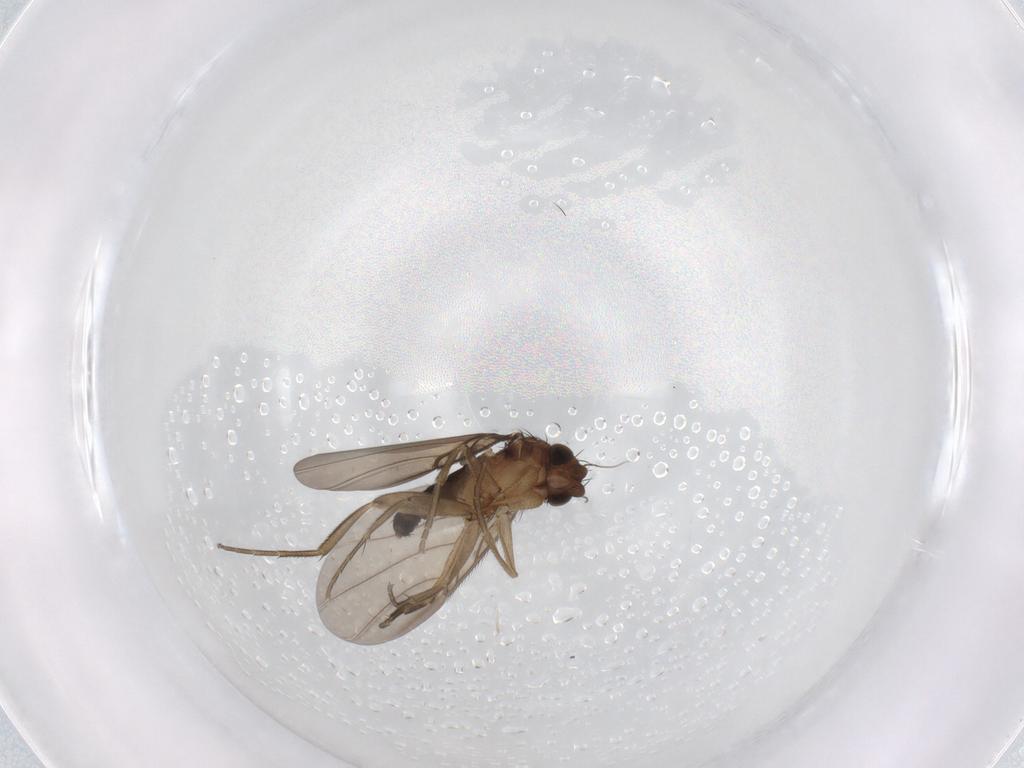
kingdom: Animalia
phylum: Arthropoda
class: Insecta
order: Diptera
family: Phoridae
